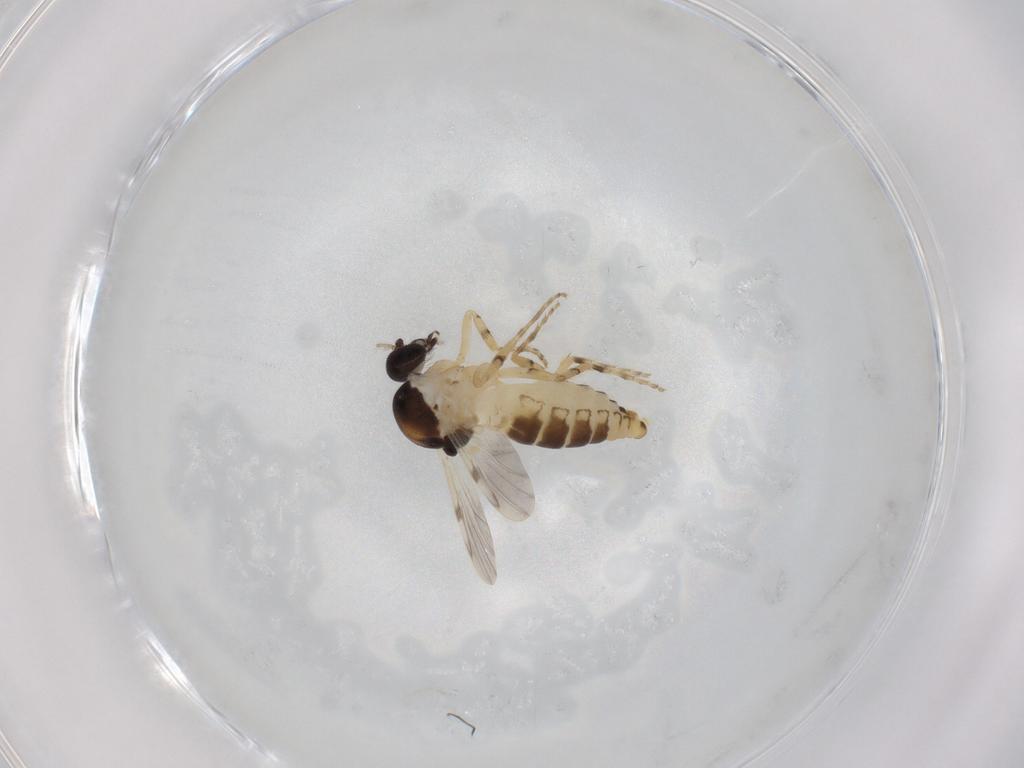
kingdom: Animalia
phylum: Arthropoda
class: Insecta
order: Diptera
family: Ceratopogonidae
